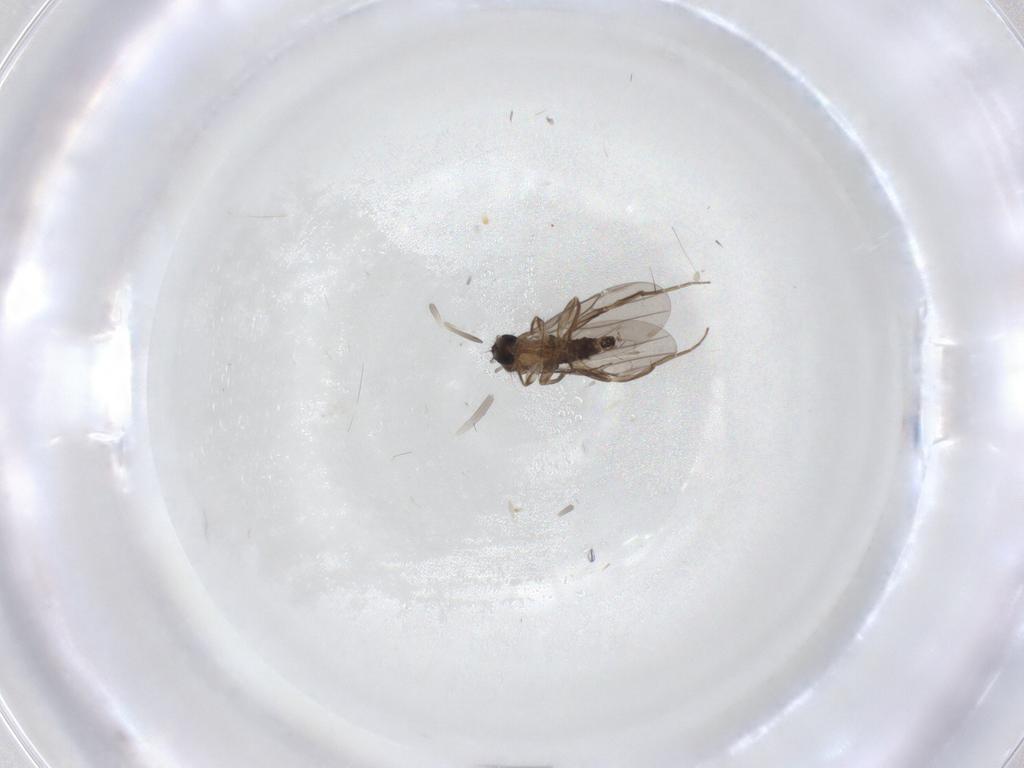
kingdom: Animalia
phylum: Arthropoda
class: Insecta
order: Diptera
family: Phoridae
